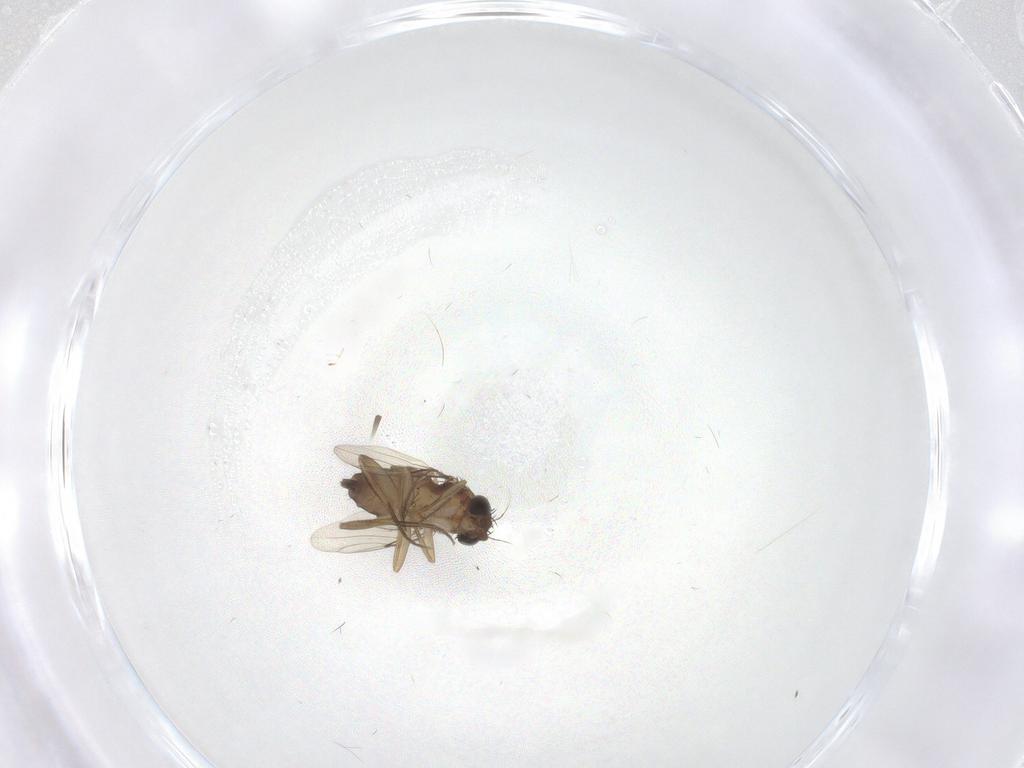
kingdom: Animalia
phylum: Arthropoda
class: Insecta
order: Diptera
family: Phoridae
